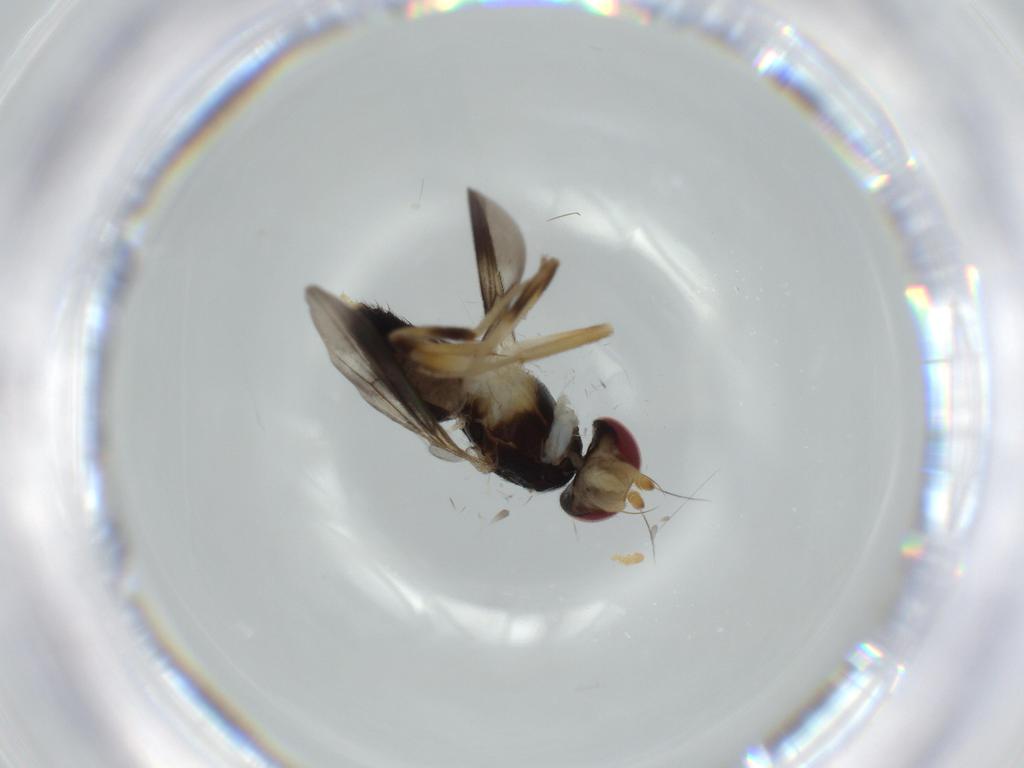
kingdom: Animalia
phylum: Arthropoda
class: Insecta
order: Diptera
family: Clusiidae
